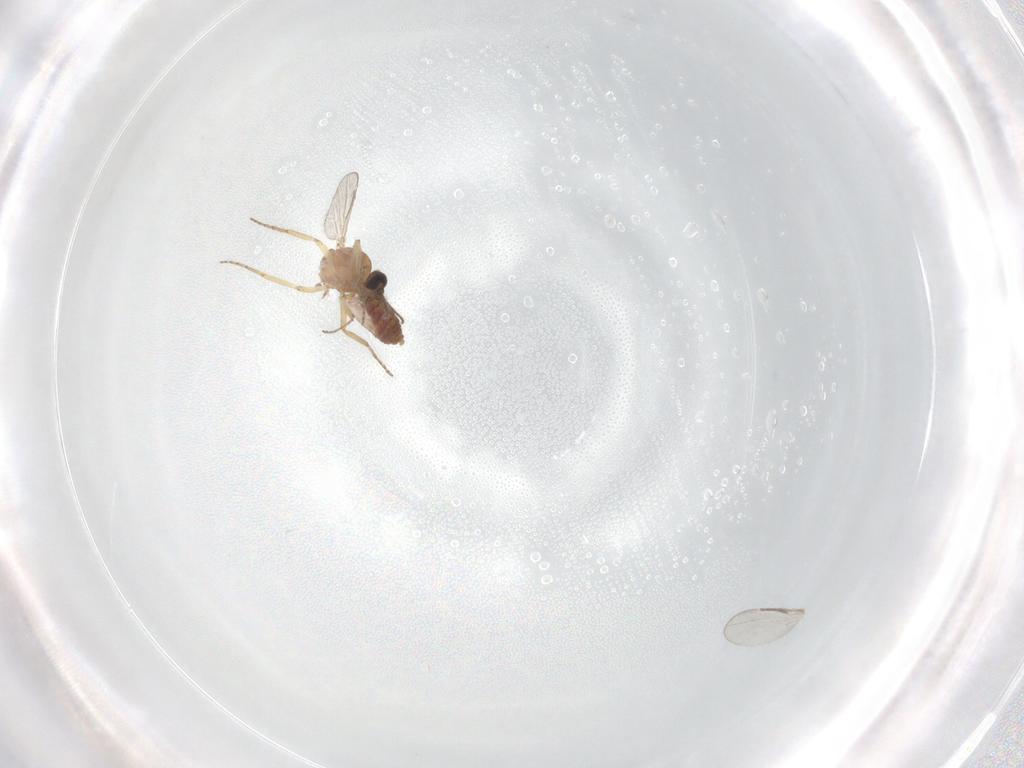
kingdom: Animalia
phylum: Arthropoda
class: Insecta
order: Diptera
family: Ceratopogonidae
